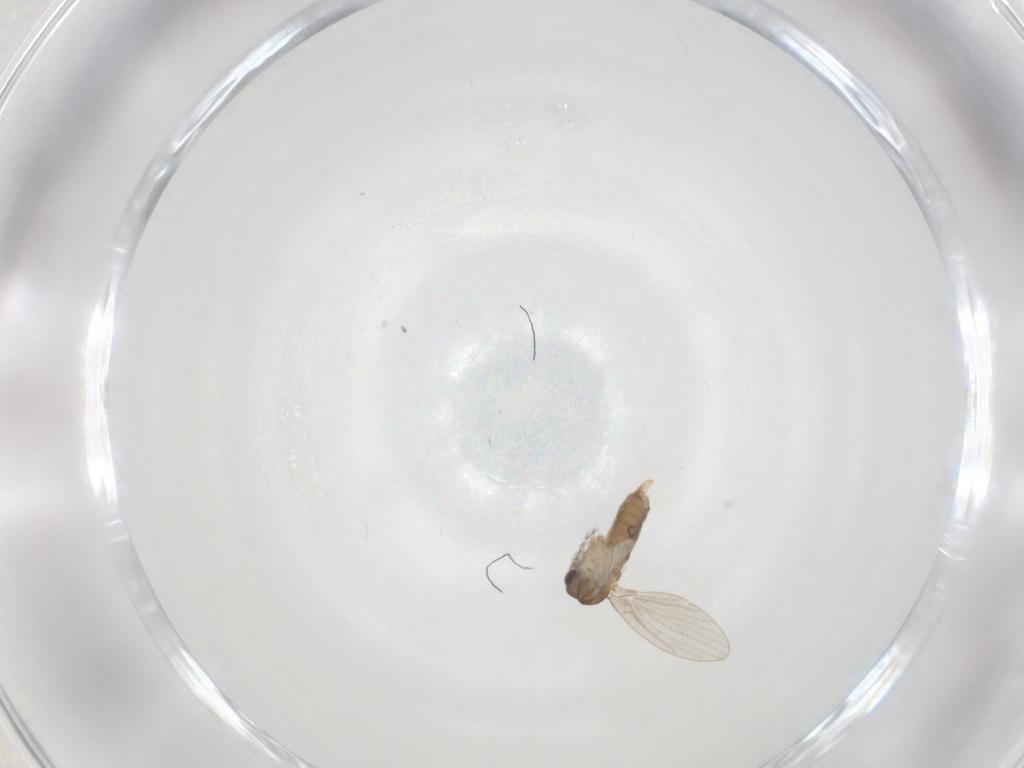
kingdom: Animalia
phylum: Arthropoda
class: Insecta
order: Diptera
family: Psychodidae
